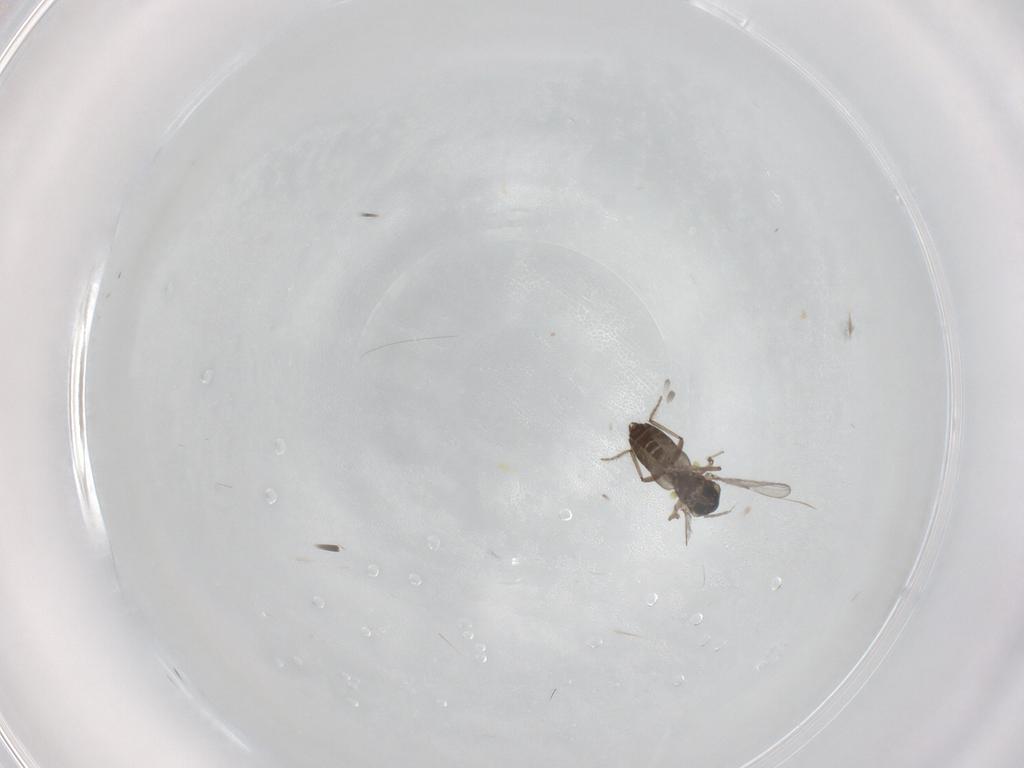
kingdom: Animalia
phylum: Arthropoda
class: Insecta
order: Diptera
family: Ceratopogonidae
